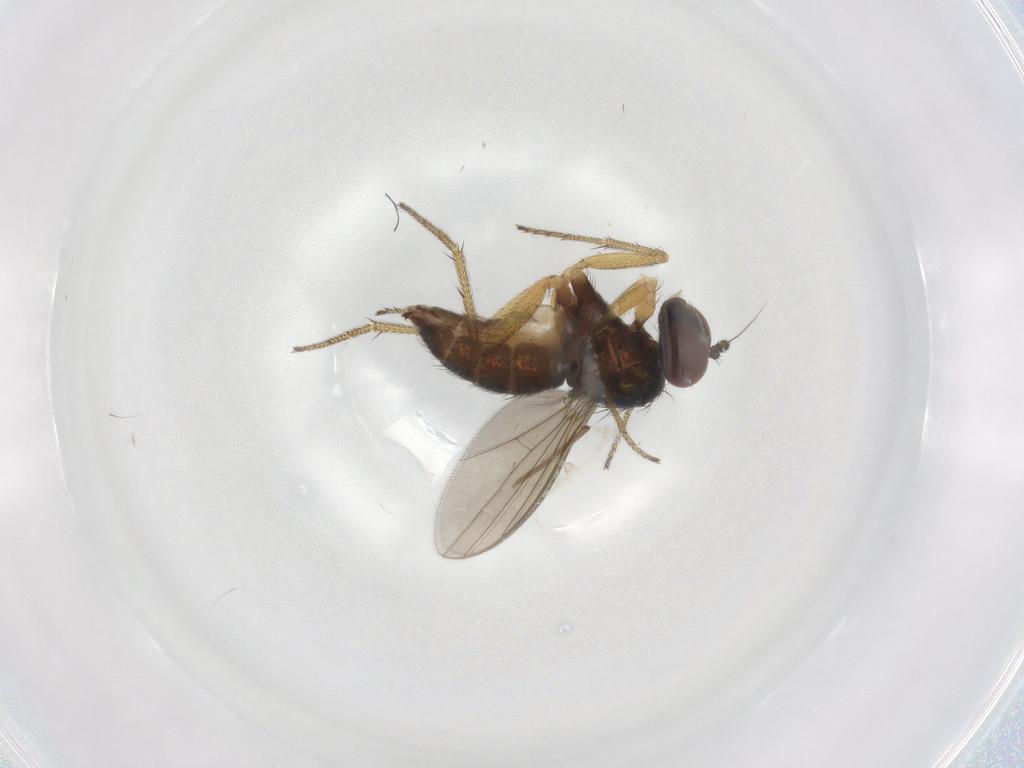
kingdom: Animalia
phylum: Arthropoda
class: Insecta
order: Diptera
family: Micropezidae
